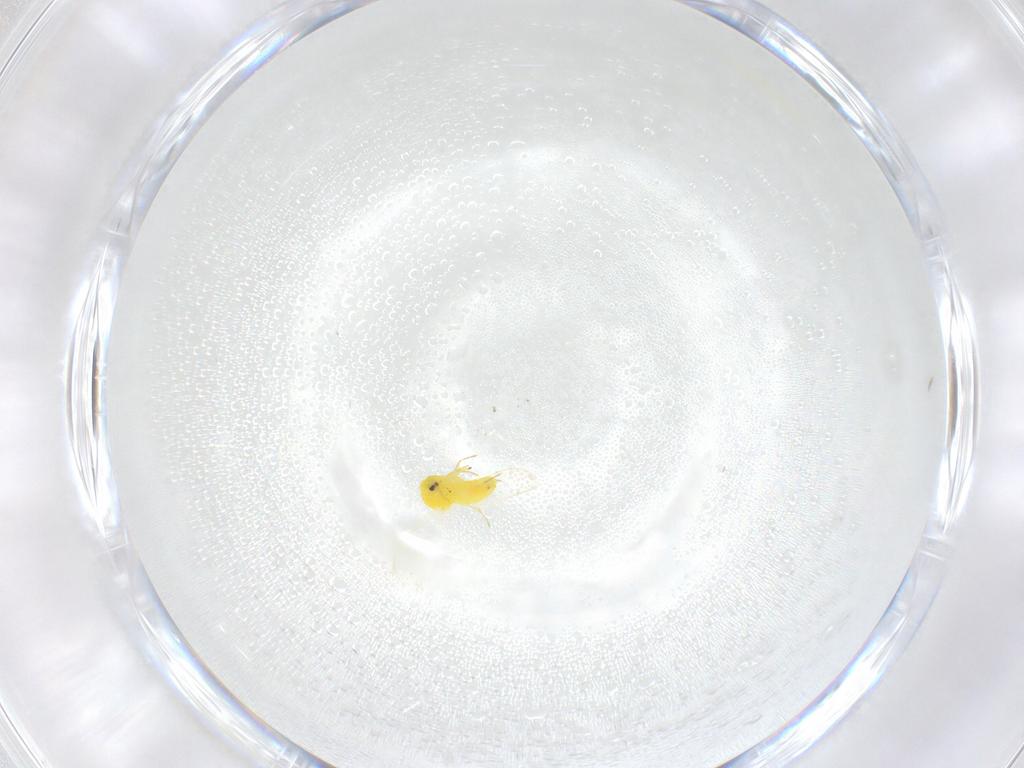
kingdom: Animalia
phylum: Arthropoda
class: Insecta
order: Hemiptera
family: Aleyrodidae
